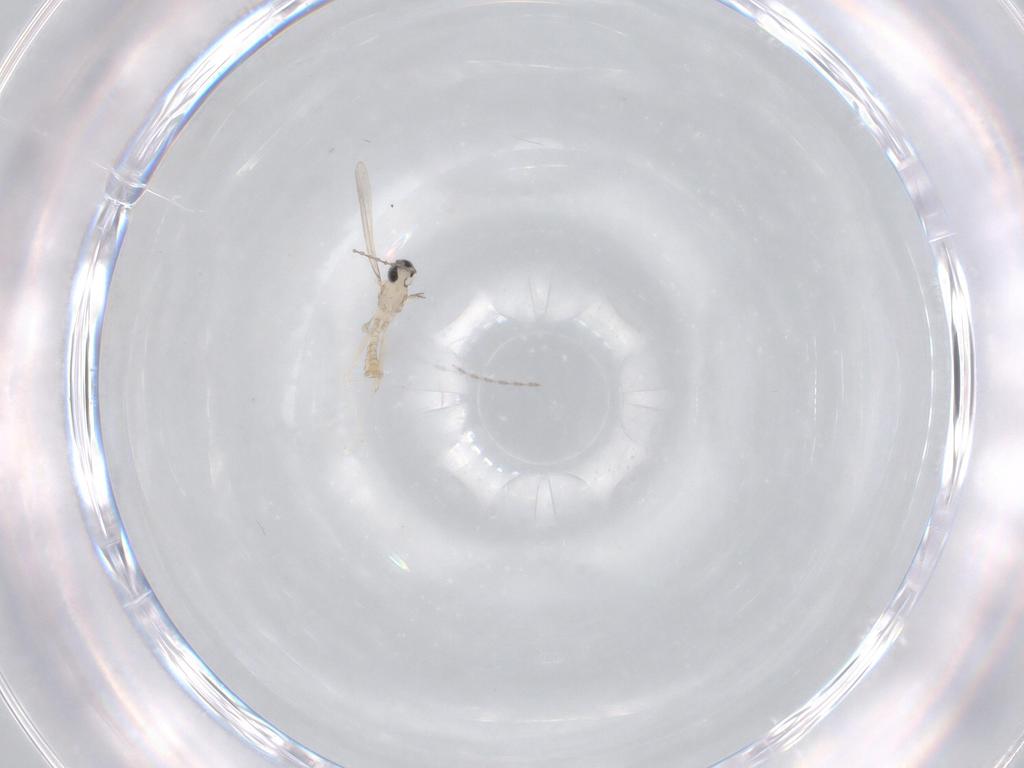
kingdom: Animalia
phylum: Arthropoda
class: Insecta
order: Diptera
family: Cecidomyiidae
